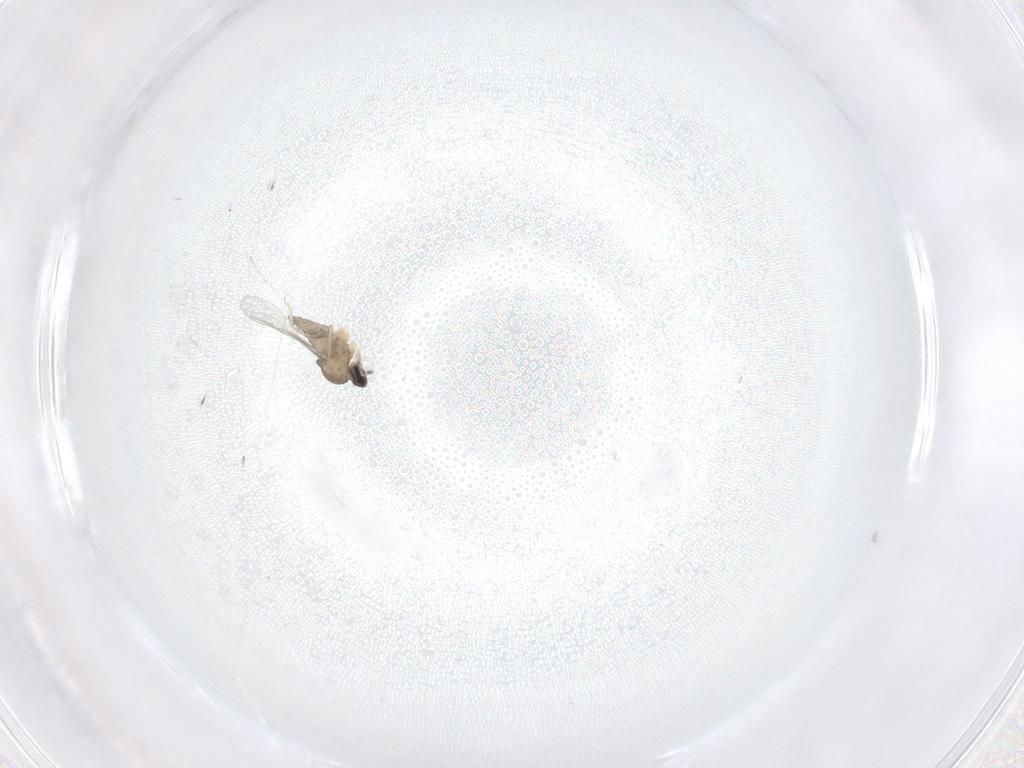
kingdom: Animalia
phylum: Arthropoda
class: Insecta
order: Diptera
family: Cecidomyiidae
